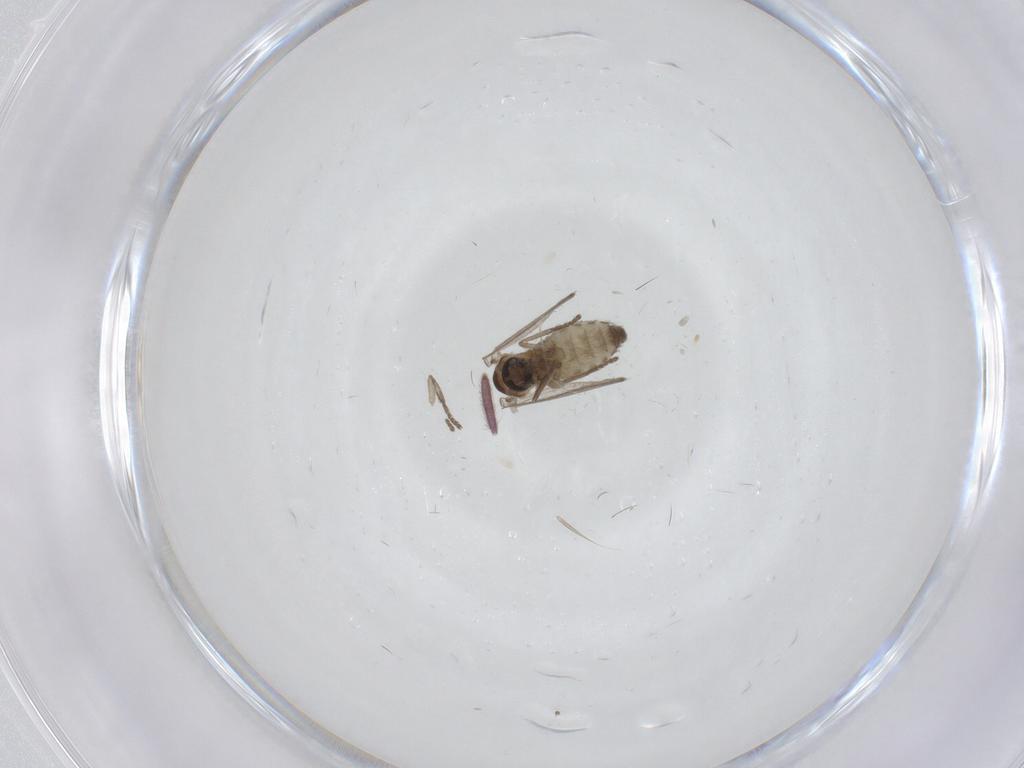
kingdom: Animalia
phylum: Arthropoda
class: Insecta
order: Diptera
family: Psychodidae
